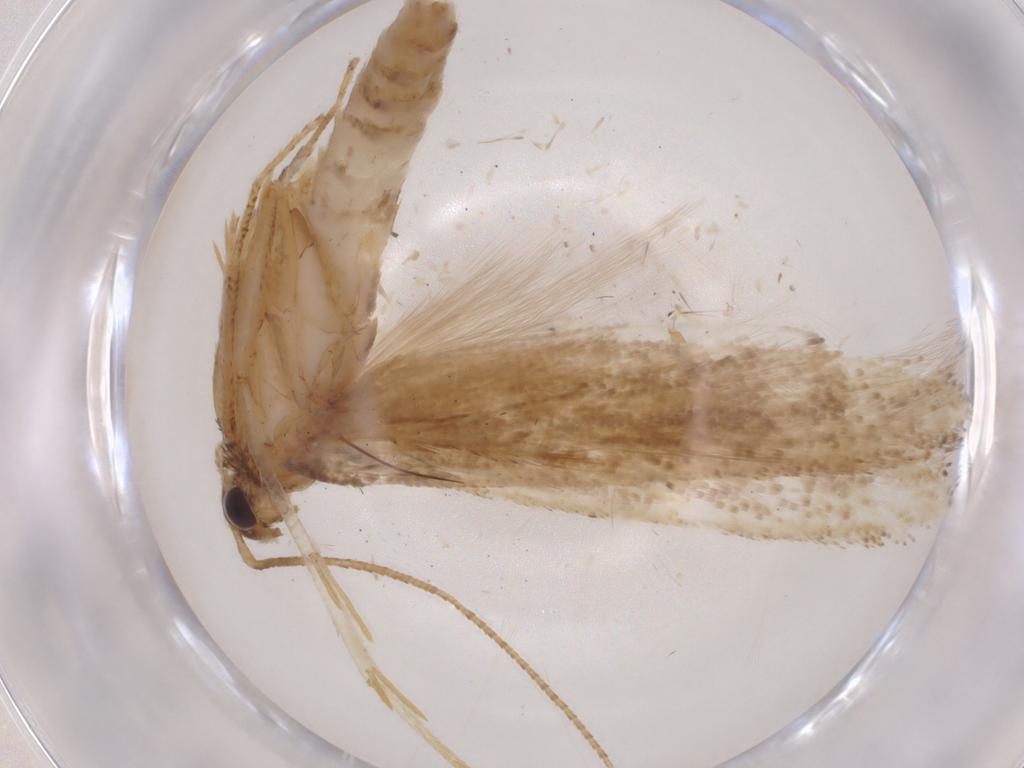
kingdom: Animalia
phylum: Arthropoda
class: Insecta
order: Lepidoptera
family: Gelechiidae
